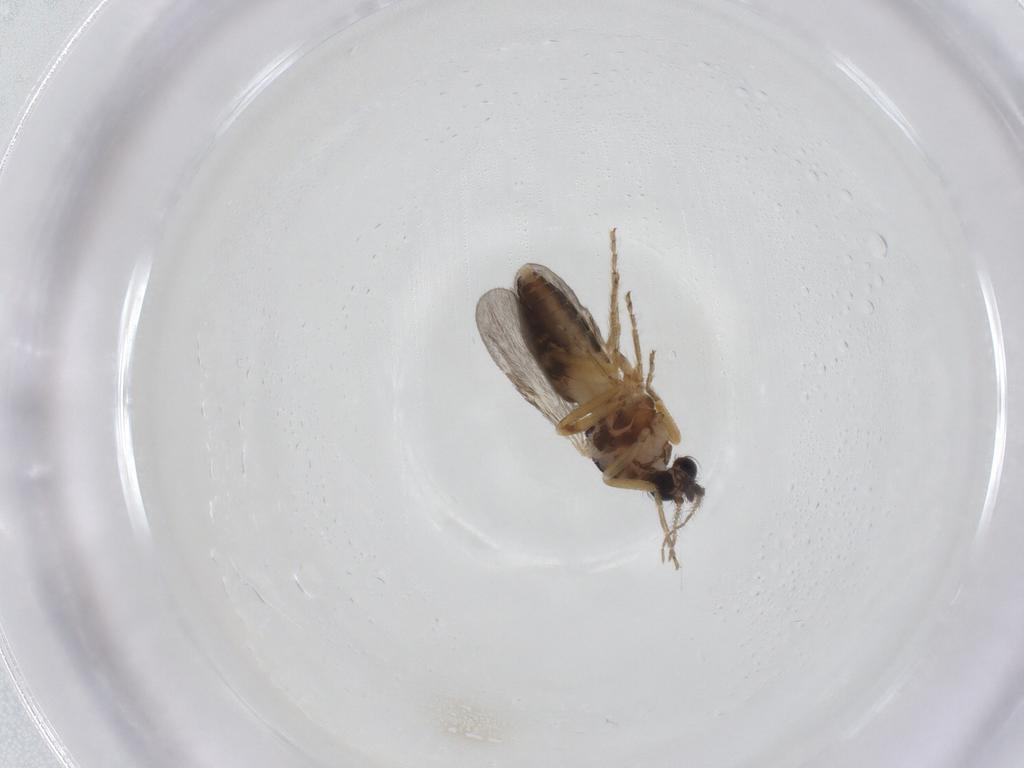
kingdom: Animalia
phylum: Arthropoda
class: Insecta
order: Diptera
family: Ceratopogonidae
